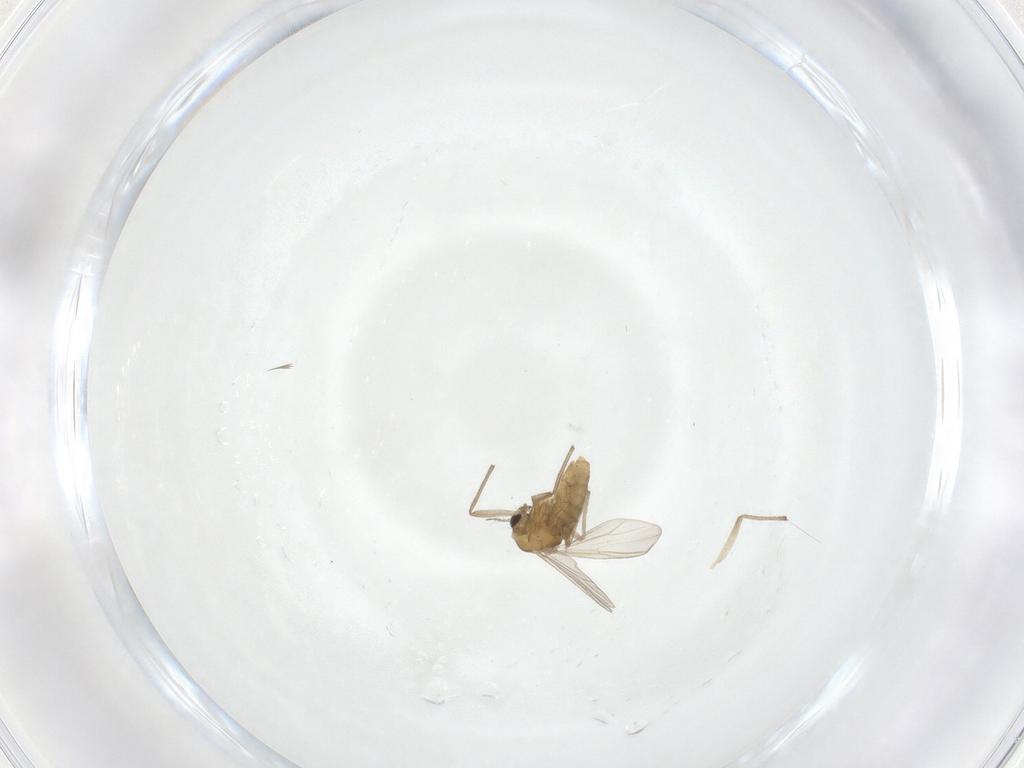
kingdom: Animalia
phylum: Arthropoda
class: Insecta
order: Diptera
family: Chironomidae
